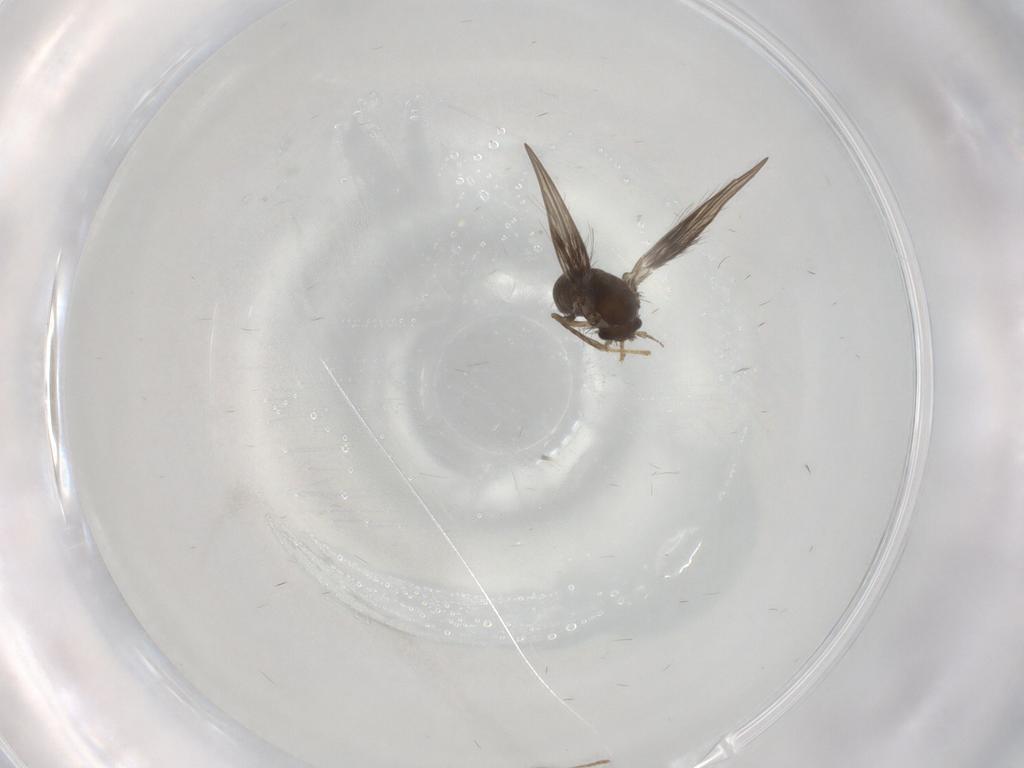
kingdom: Animalia
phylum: Arthropoda
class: Insecta
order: Diptera
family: Psychodidae
